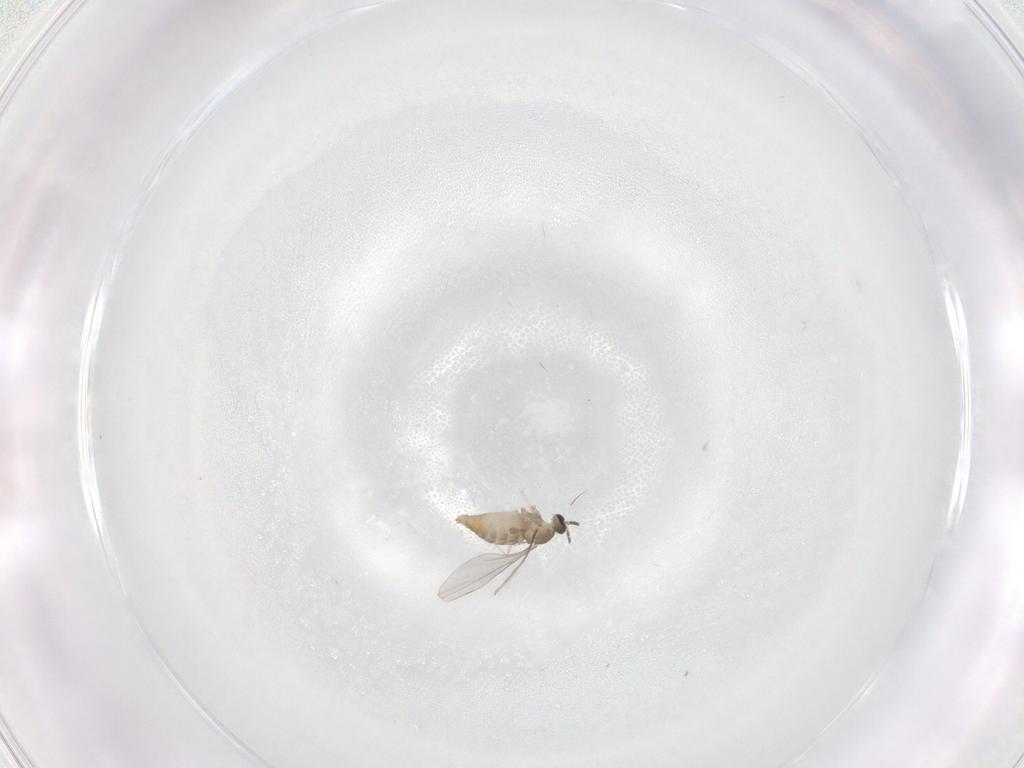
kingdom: Animalia
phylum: Arthropoda
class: Insecta
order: Diptera
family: Cecidomyiidae
